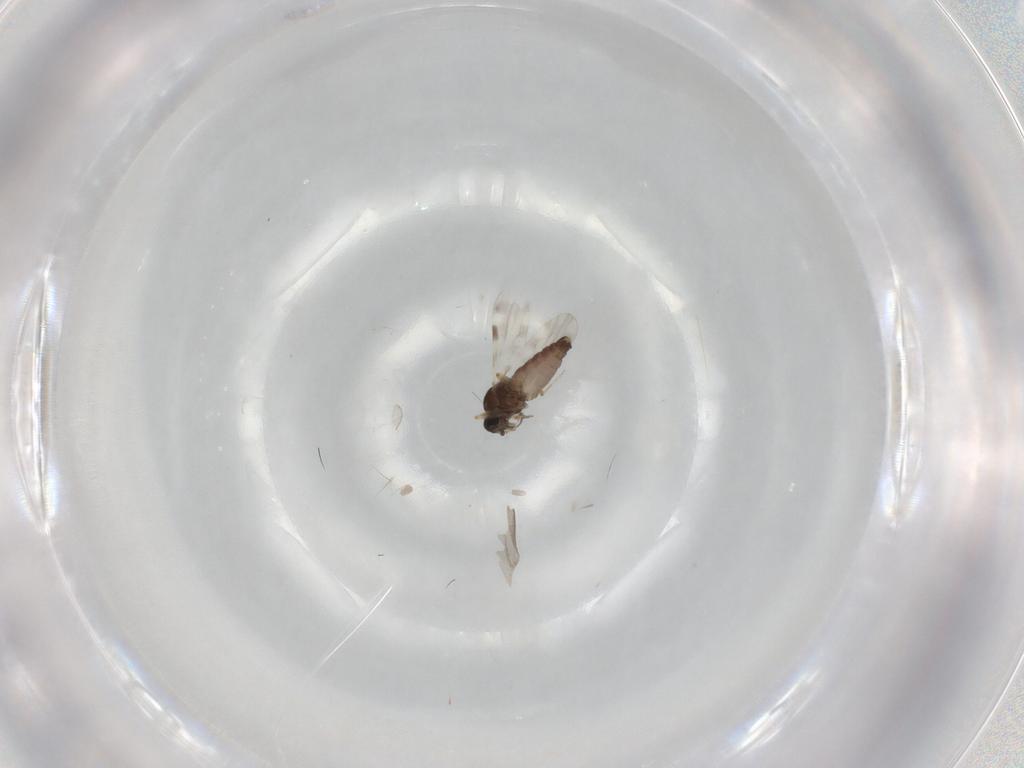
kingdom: Animalia
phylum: Arthropoda
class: Insecta
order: Diptera
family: Cecidomyiidae
